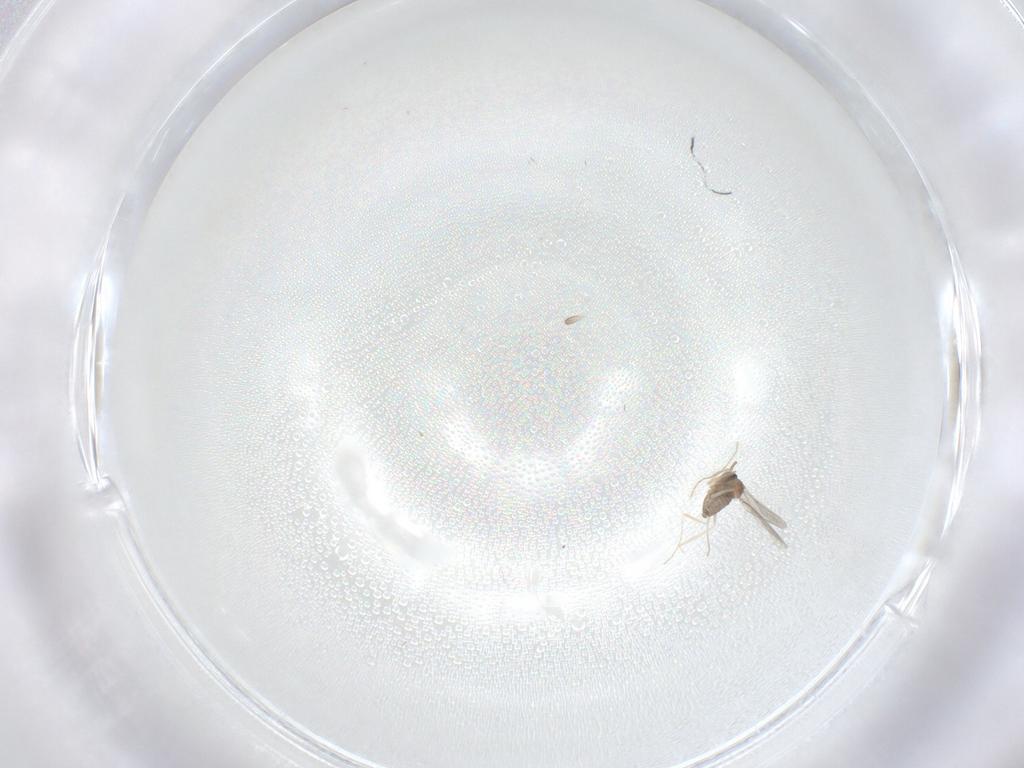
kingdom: Animalia
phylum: Arthropoda
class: Insecta
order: Diptera
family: Cecidomyiidae
